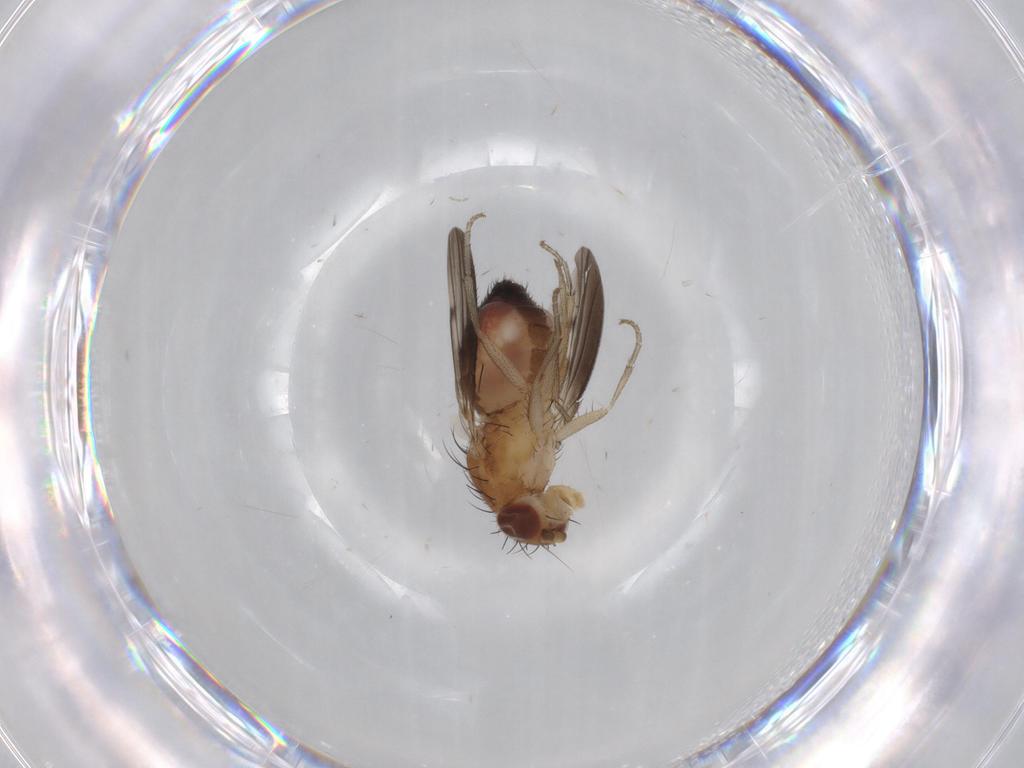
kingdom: Animalia
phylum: Arthropoda
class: Insecta
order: Diptera
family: Heleomyzidae
